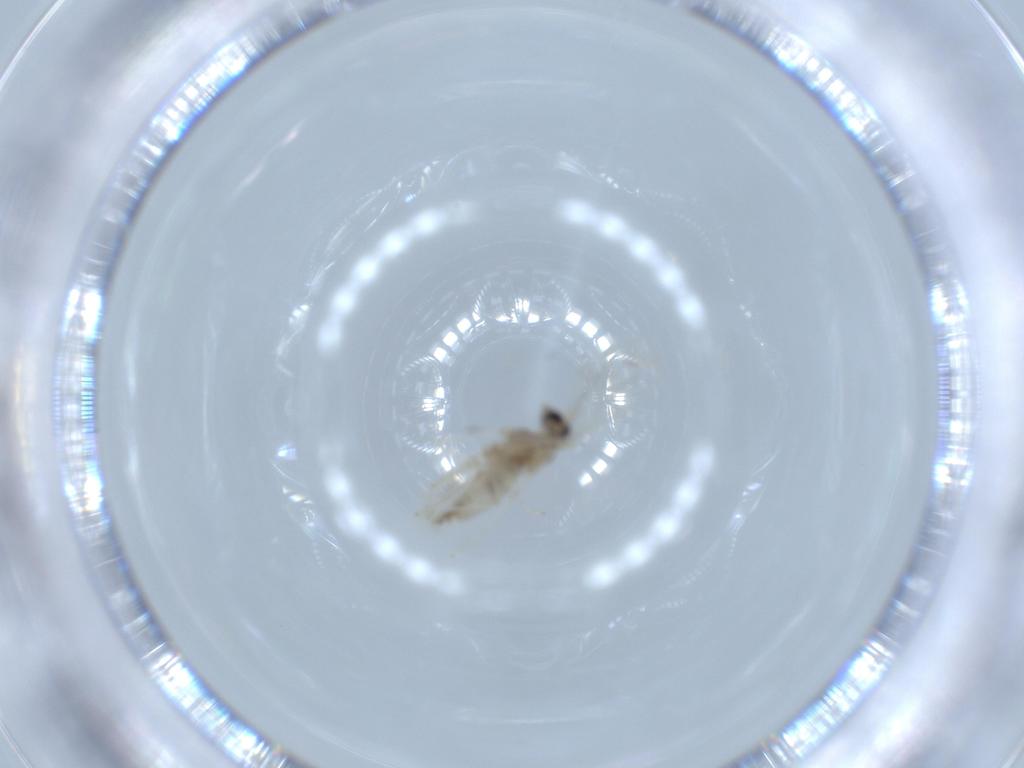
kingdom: Animalia
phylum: Arthropoda
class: Insecta
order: Diptera
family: Cecidomyiidae
